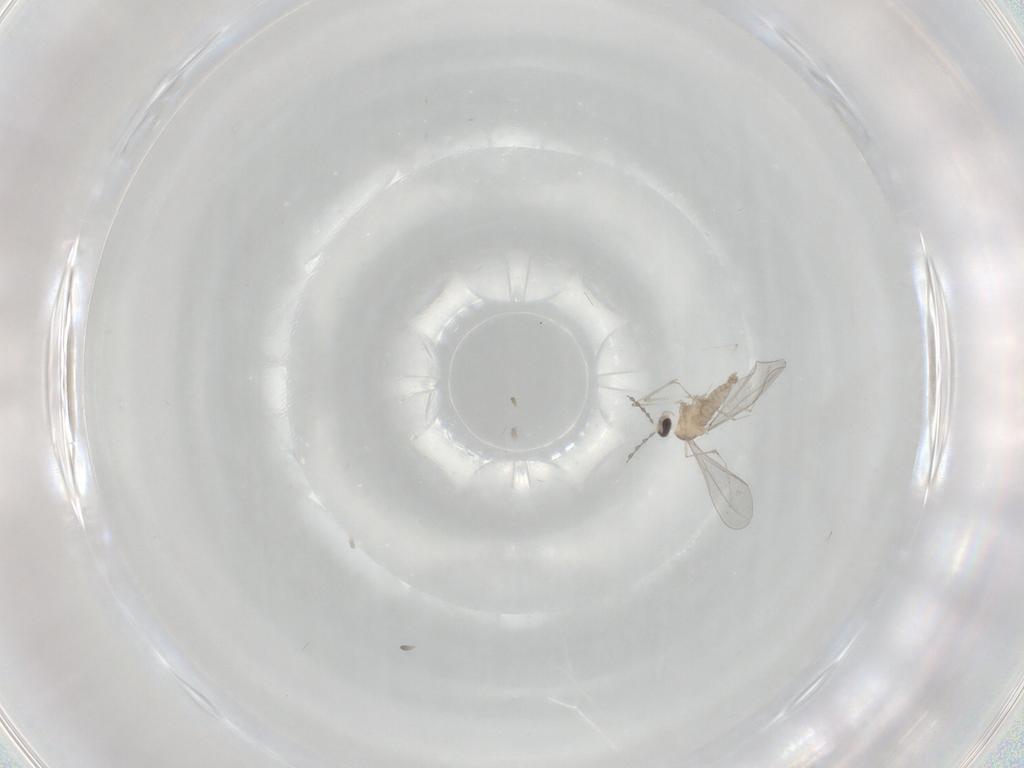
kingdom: Animalia
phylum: Arthropoda
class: Insecta
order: Diptera
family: Cecidomyiidae
